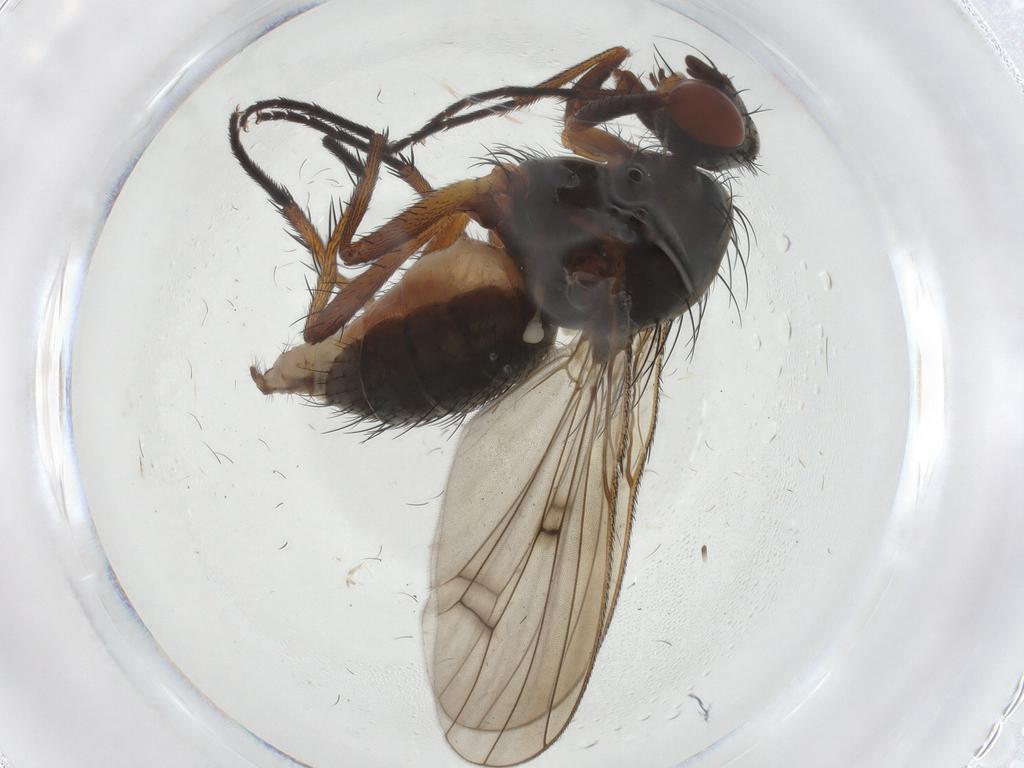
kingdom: Animalia
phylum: Arthropoda
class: Insecta
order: Diptera
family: Anthomyiidae
